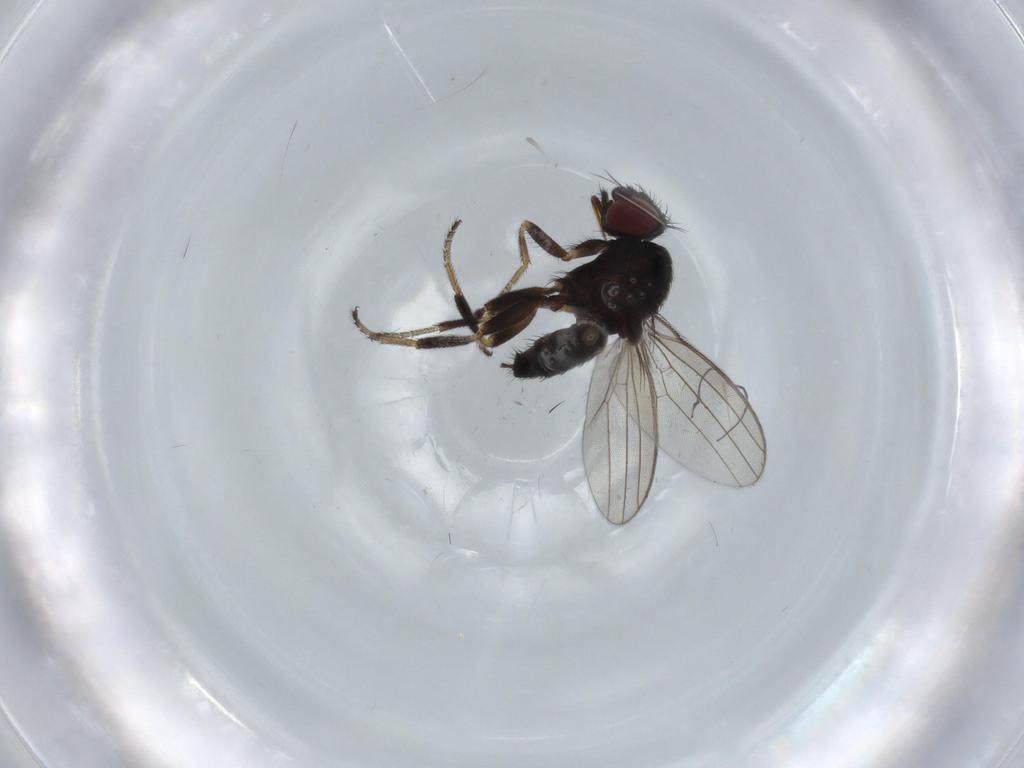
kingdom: Animalia
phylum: Arthropoda
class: Insecta
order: Diptera
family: Milichiidae
